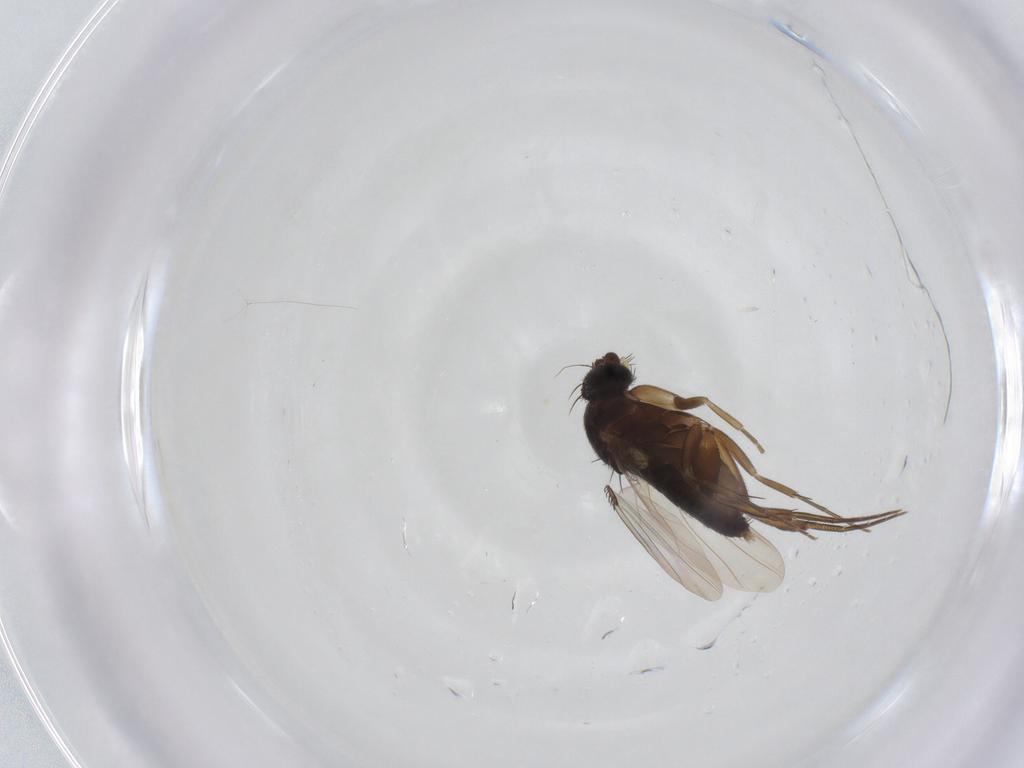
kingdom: Animalia
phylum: Arthropoda
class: Insecta
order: Diptera
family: Phoridae
